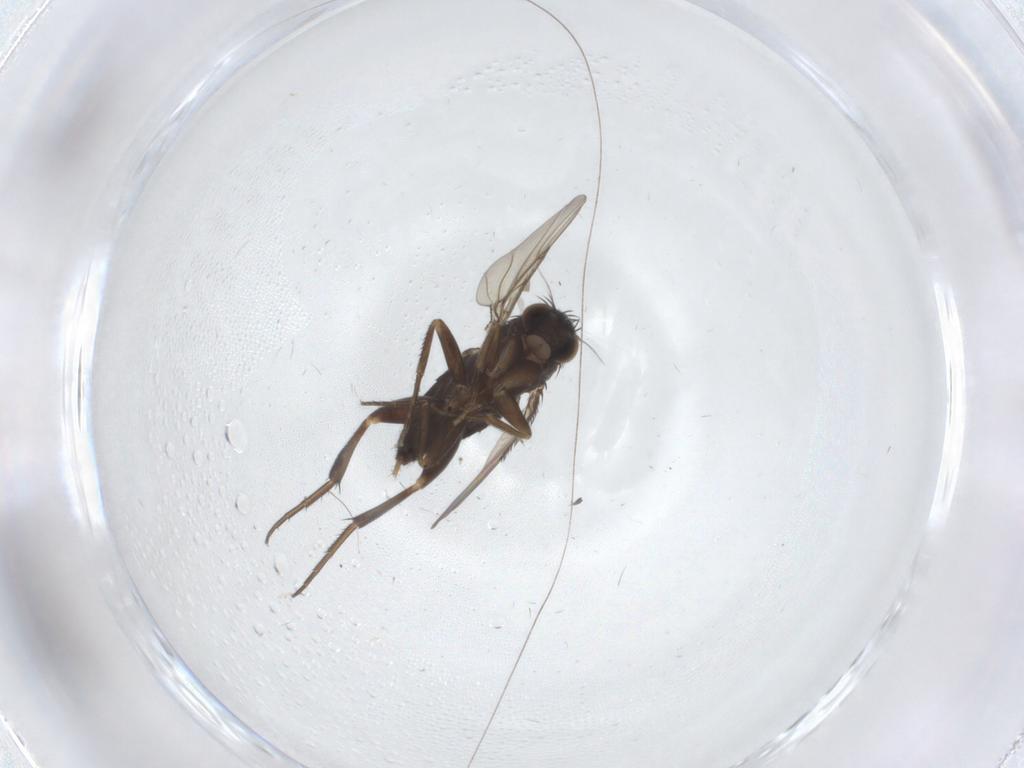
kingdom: Animalia
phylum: Arthropoda
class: Insecta
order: Diptera
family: Phoridae
